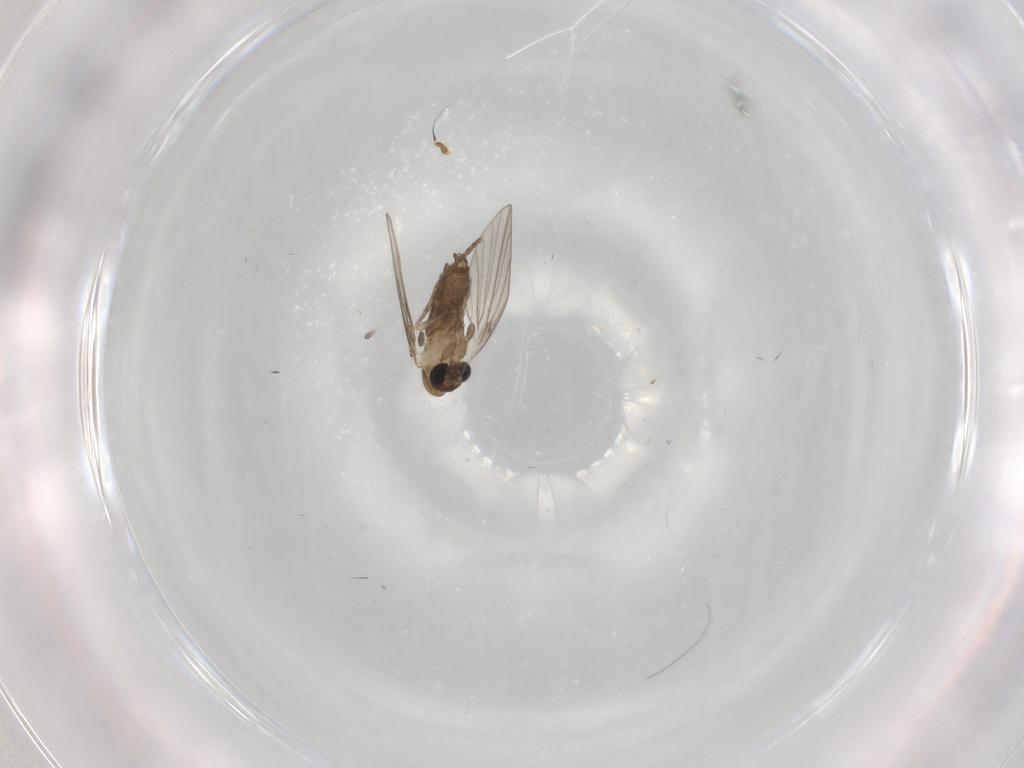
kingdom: Animalia
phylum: Arthropoda
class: Insecta
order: Diptera
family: Psychodidae
